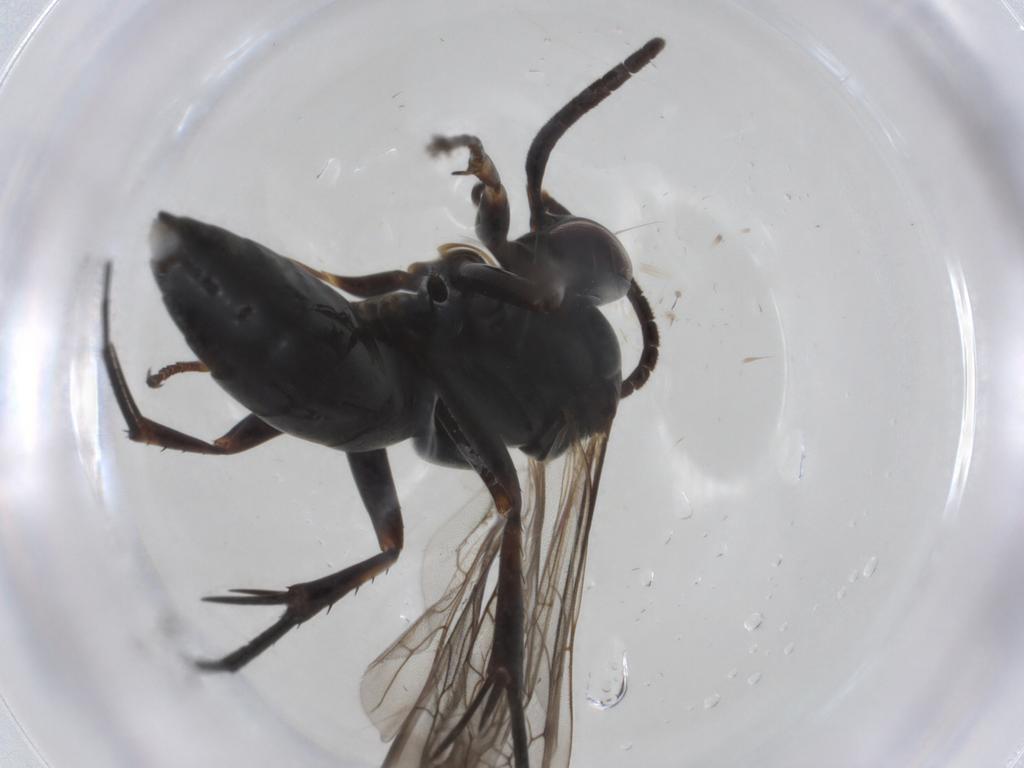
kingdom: Animalia
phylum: Arthropoda
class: Insecta
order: Hymenoptera
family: Pompilidae
